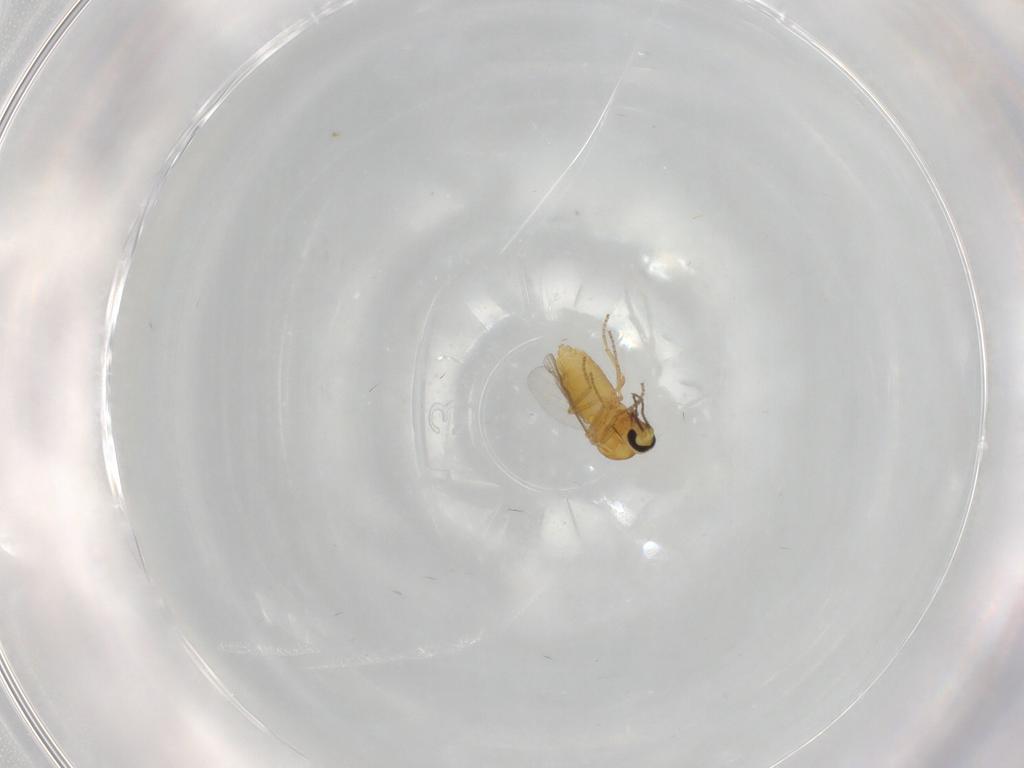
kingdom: Animalia
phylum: Arthropoda
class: Insecta
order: Diptera
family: Ceratopogonidae
